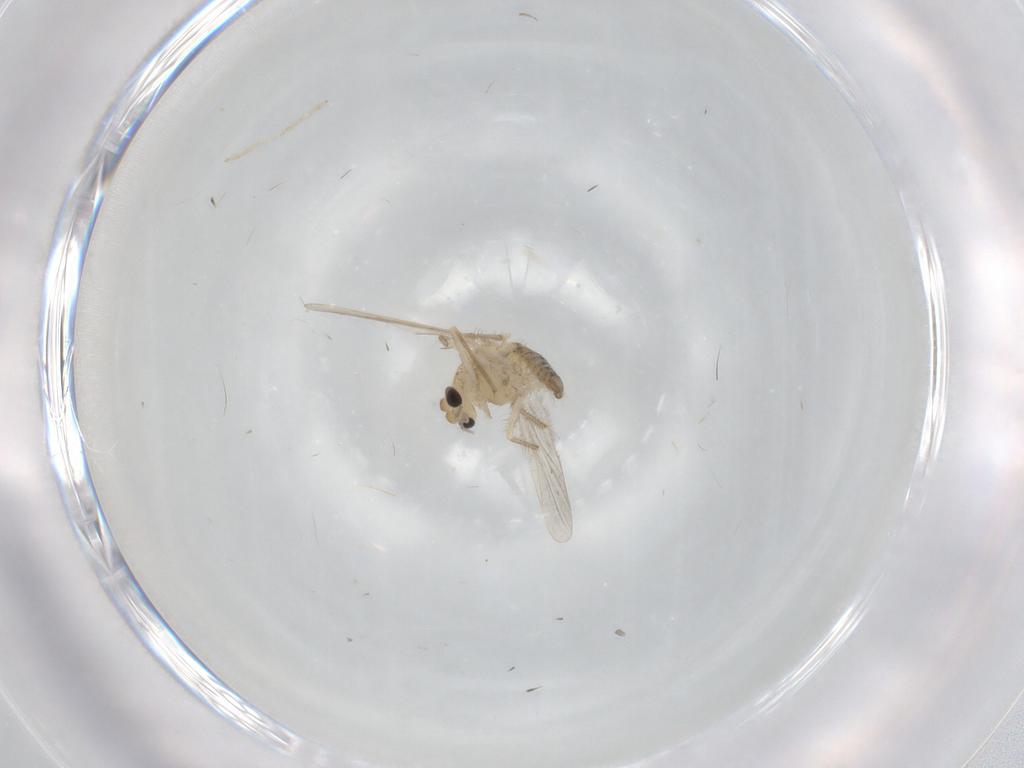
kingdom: Animalia
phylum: Arthropoda
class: Insecta
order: Diptera
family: Chironomidae
